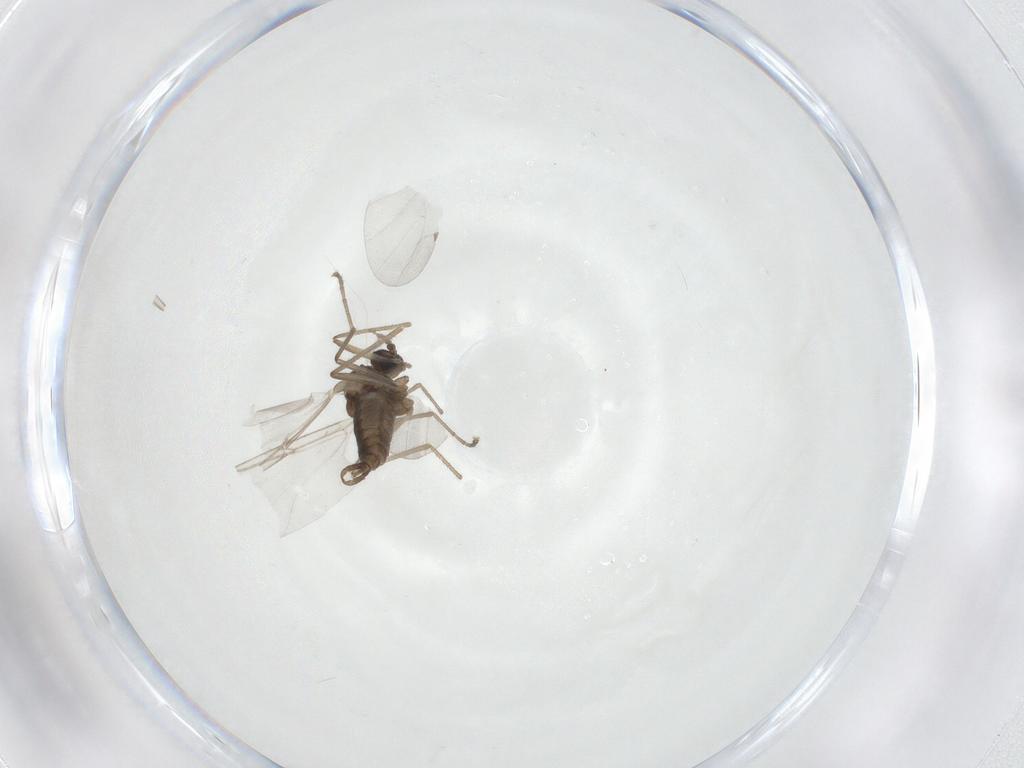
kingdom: Animalia
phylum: Arthropoda
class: Insecta
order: Diptera
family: Cecidomyiidae
